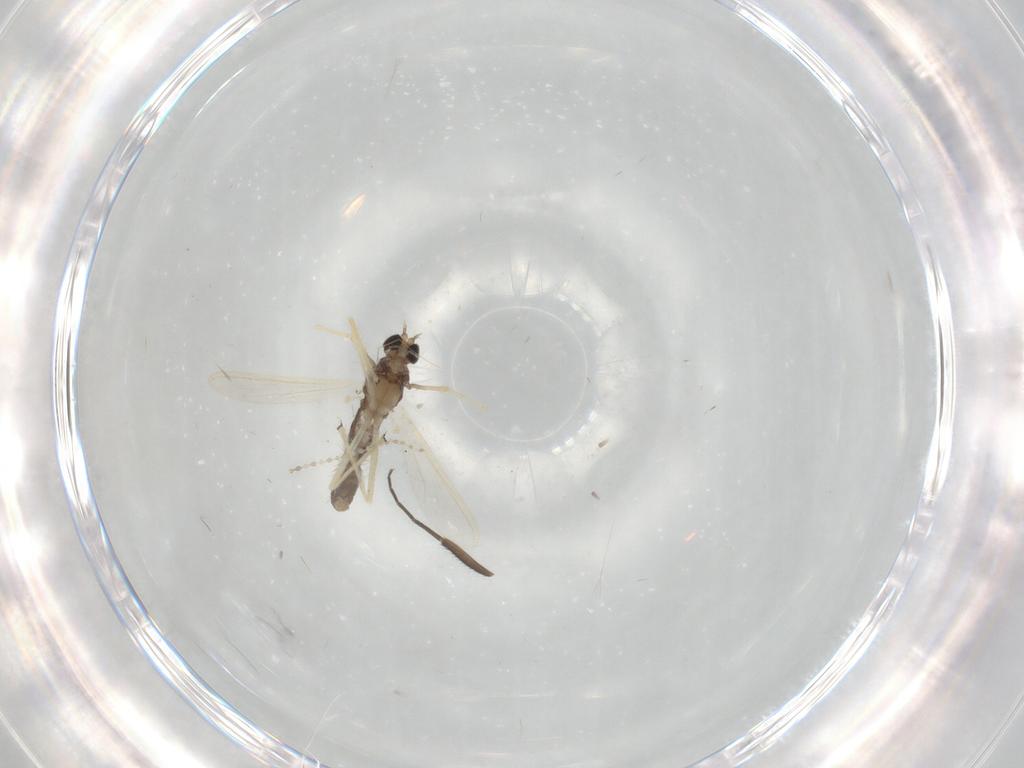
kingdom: Animalia
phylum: Arthropoda
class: Insecta
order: Diptera
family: Chironomidae
